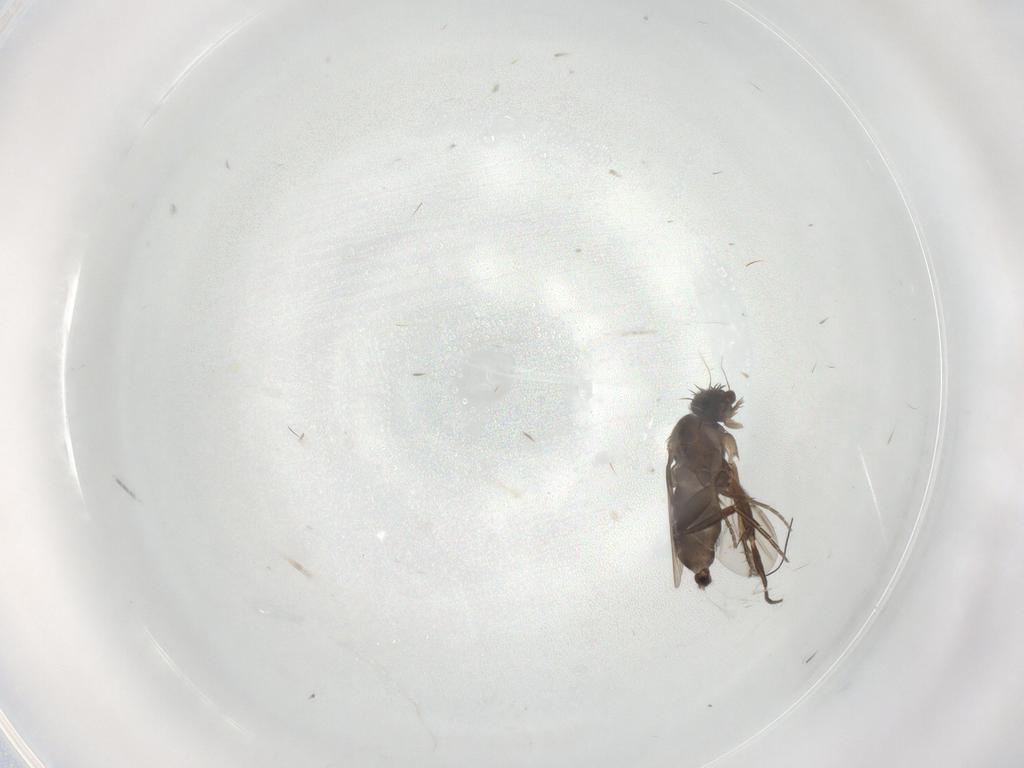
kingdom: Animalia
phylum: Arthropoda
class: Insecta
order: Diptera
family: Phoridae
